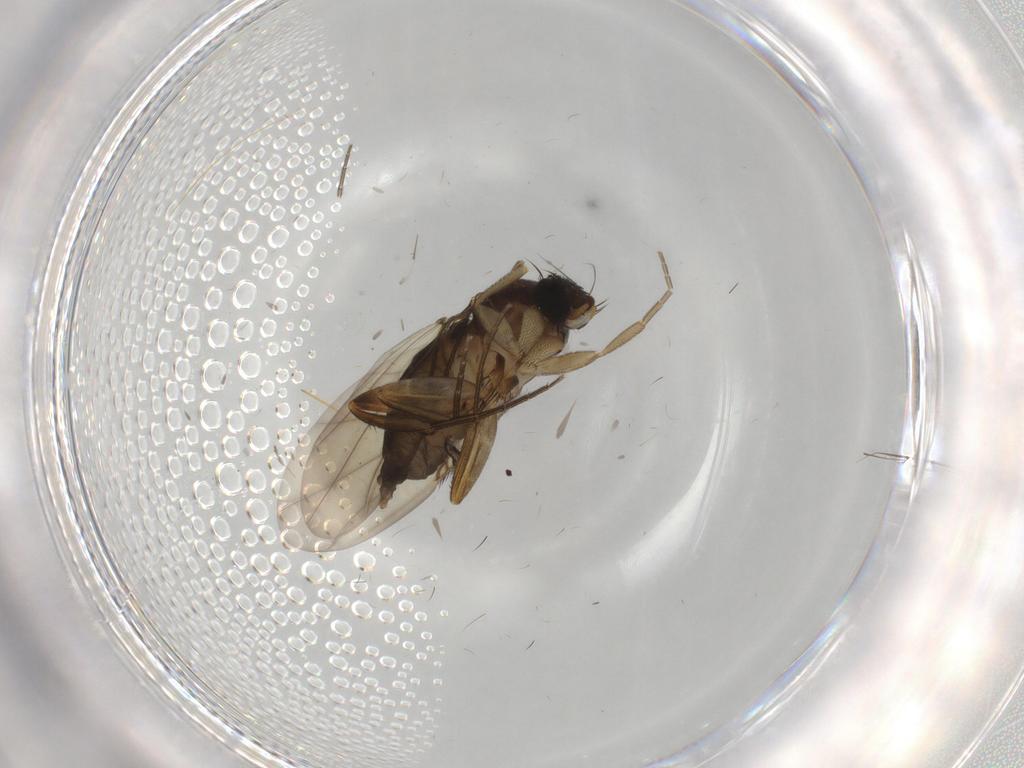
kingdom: Animalia
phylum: Arthropoda
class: Insecta
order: Diptera
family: Phoridae
